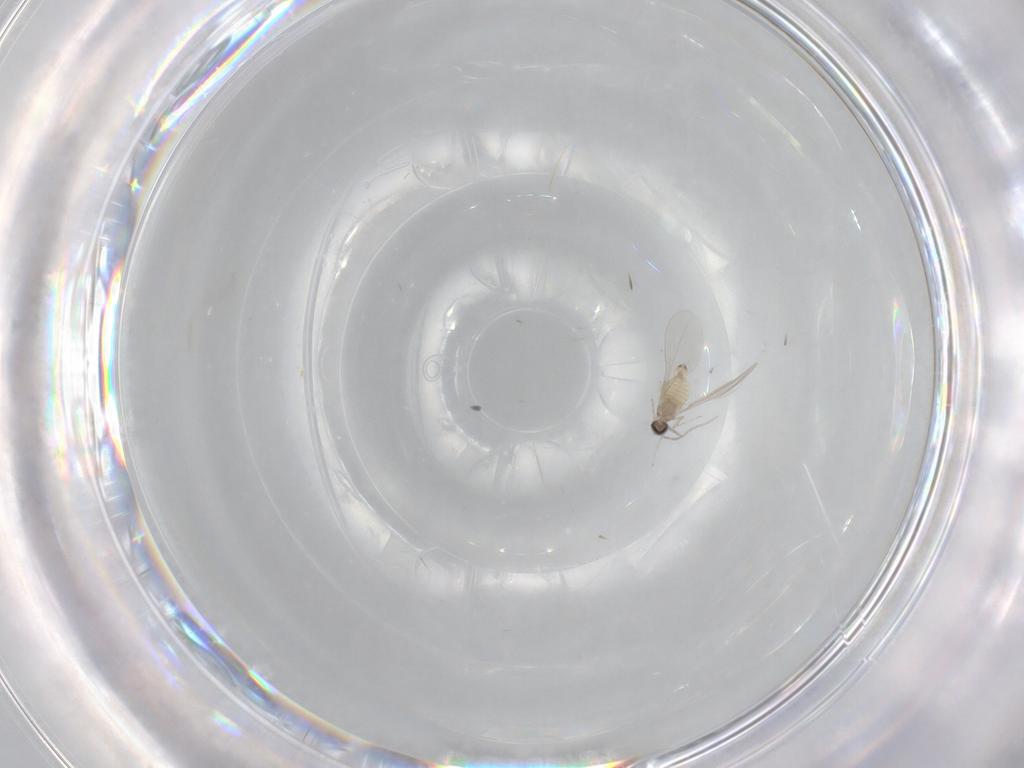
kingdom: Animalia
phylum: Arthropoda
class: Insecta
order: Diptera
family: Cecidomyiidae
